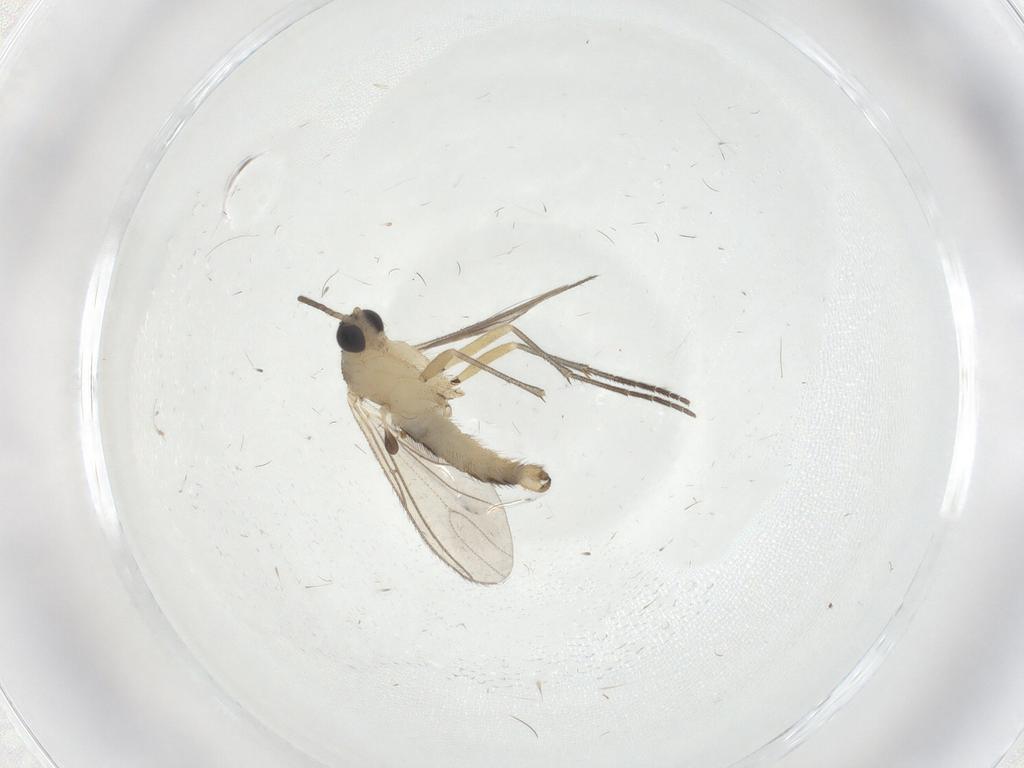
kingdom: Animalia
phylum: Arthropoda
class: Insecta
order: Diptera
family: Sciaridae
